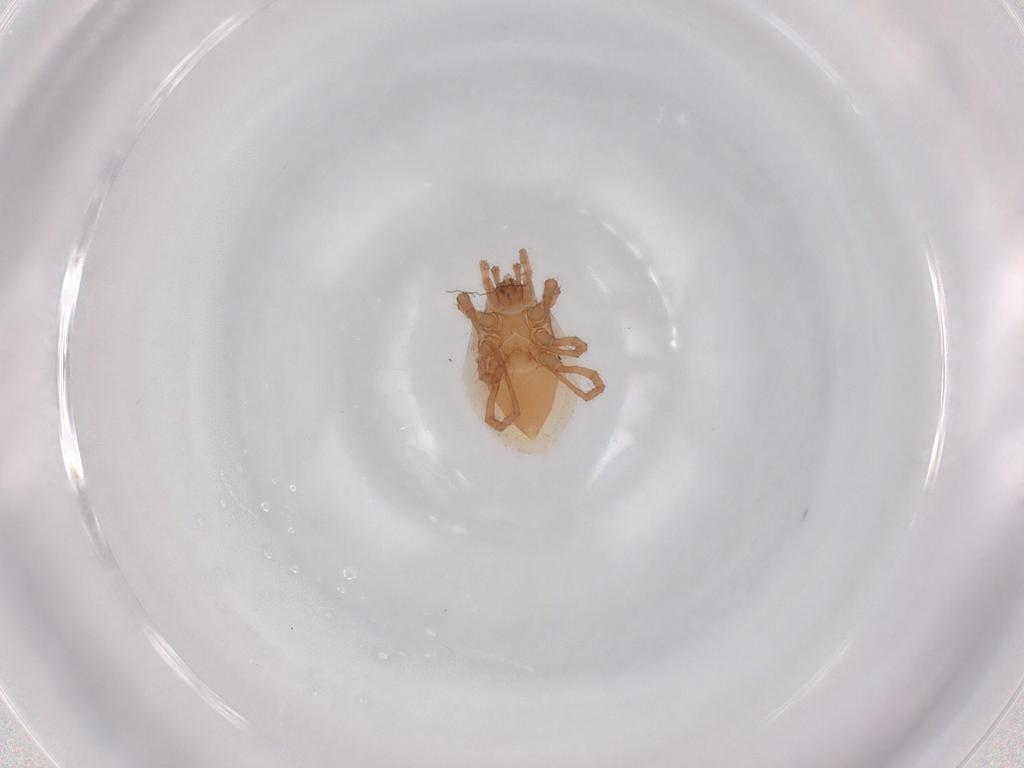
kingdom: Animalia
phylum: Arthropoda
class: Arachnida
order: Mesostigmata
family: Parasitidae
